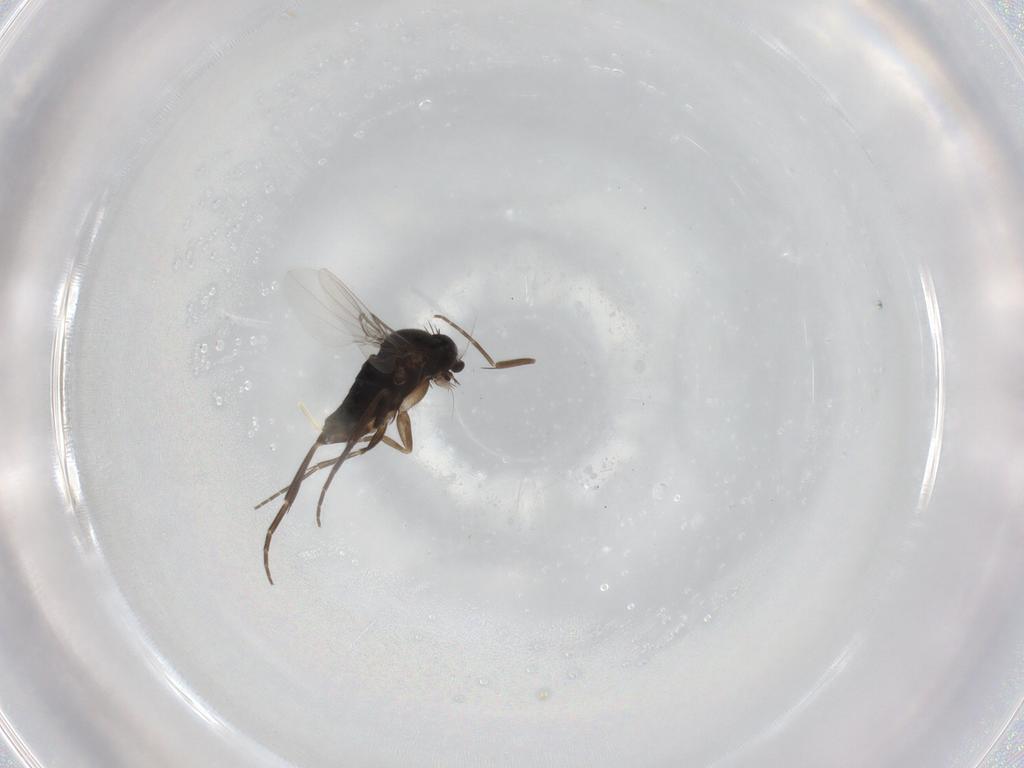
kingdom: Animalia
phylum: Arthropoda
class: Insecta
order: Diptera
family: Phoridae
